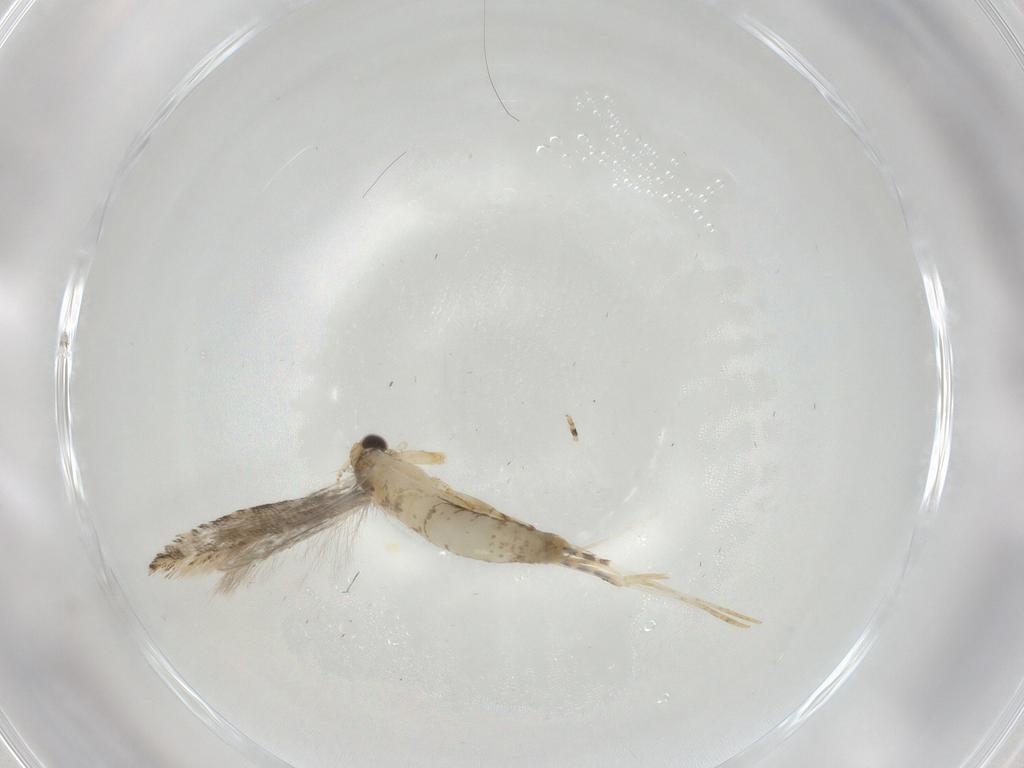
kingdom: Animalia
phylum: Arthropoda
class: Insecta
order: Lepidoptera
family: Tineidae
